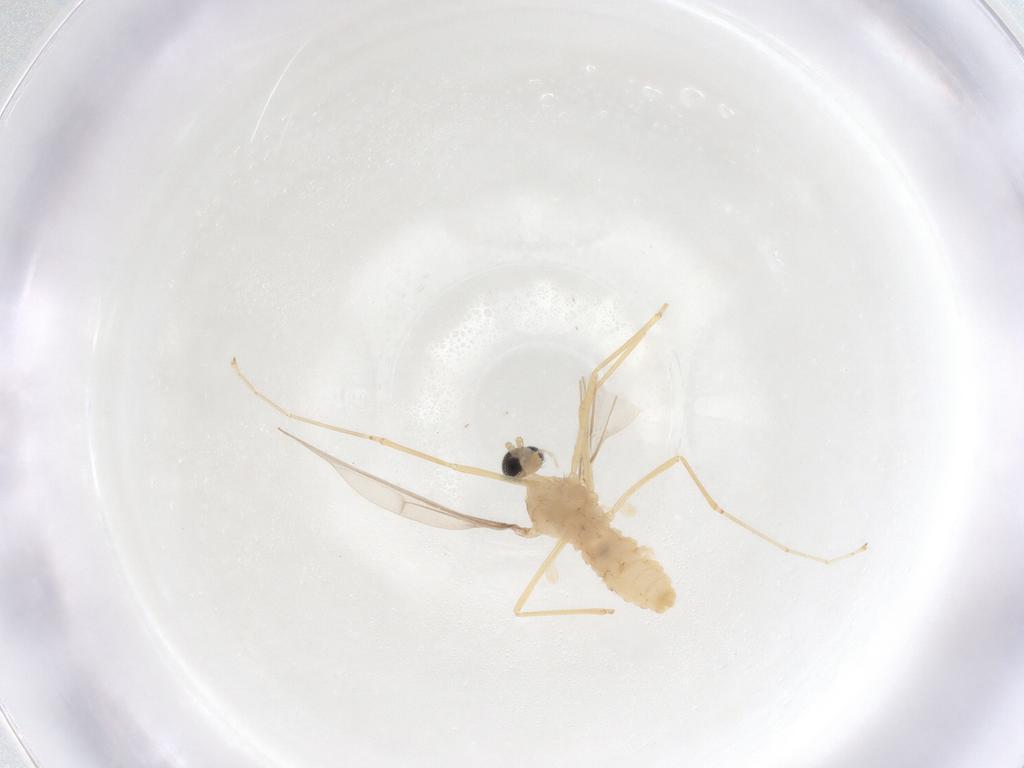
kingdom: Animalia
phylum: Arthropoda
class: Insecta
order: Diptera
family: Cecidomyiidae
